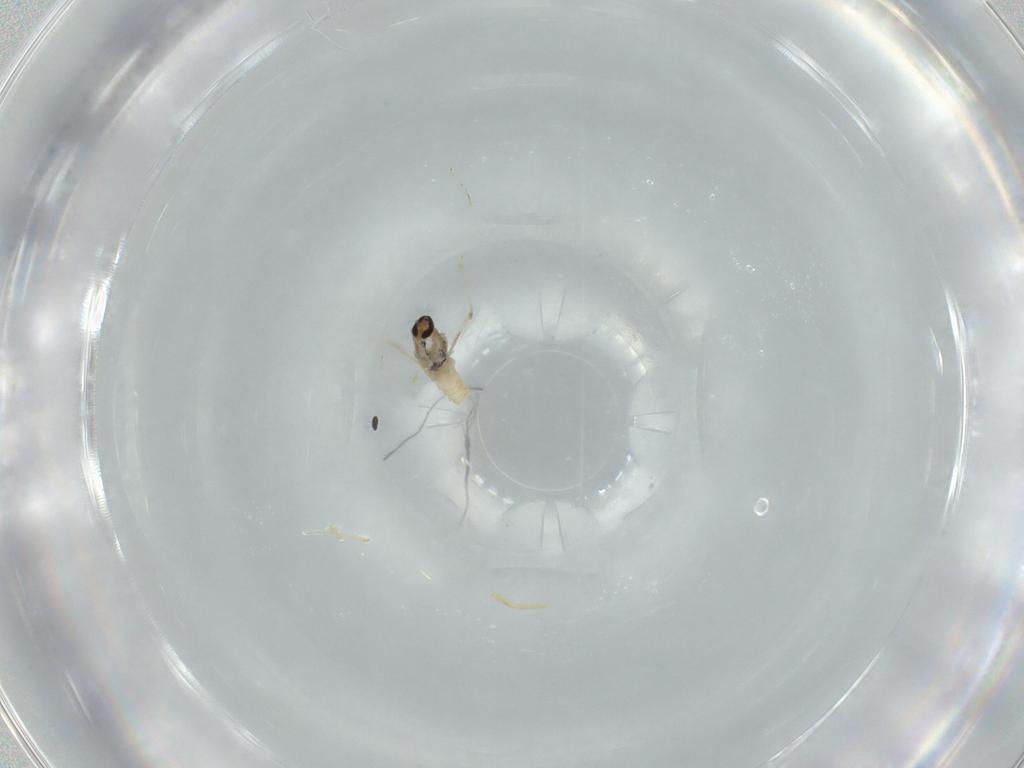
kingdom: Animalia
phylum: Arthropoda
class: Insecta
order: Diptera
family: Cecidomyiidae
